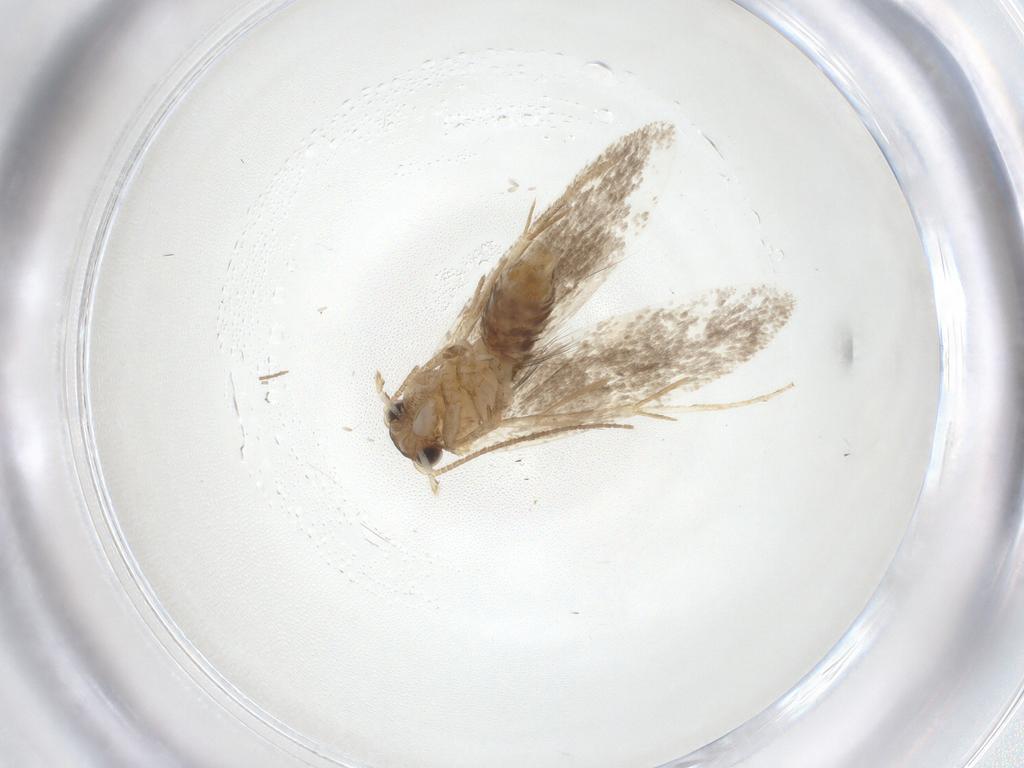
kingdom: Animalia
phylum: Arthropoda
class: Insecta
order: Lepidoptera
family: Dryadaulidae
